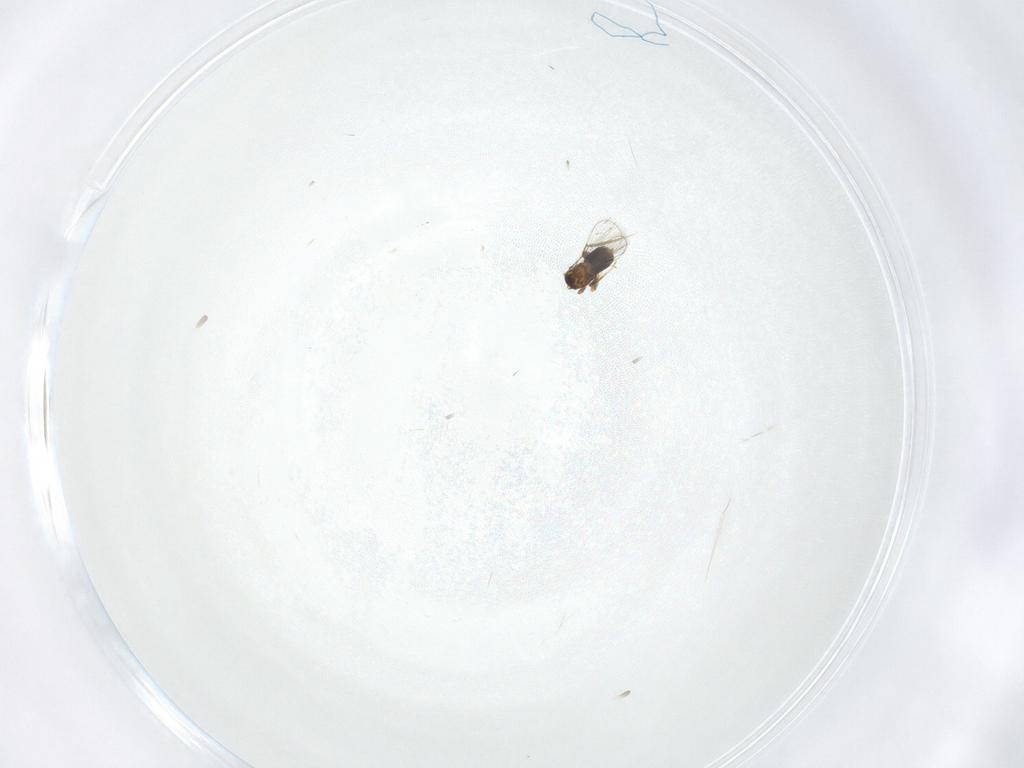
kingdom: Animalia
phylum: Arthropoda
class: Insecta
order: Hymenoptera
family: Trichogrammatidae
